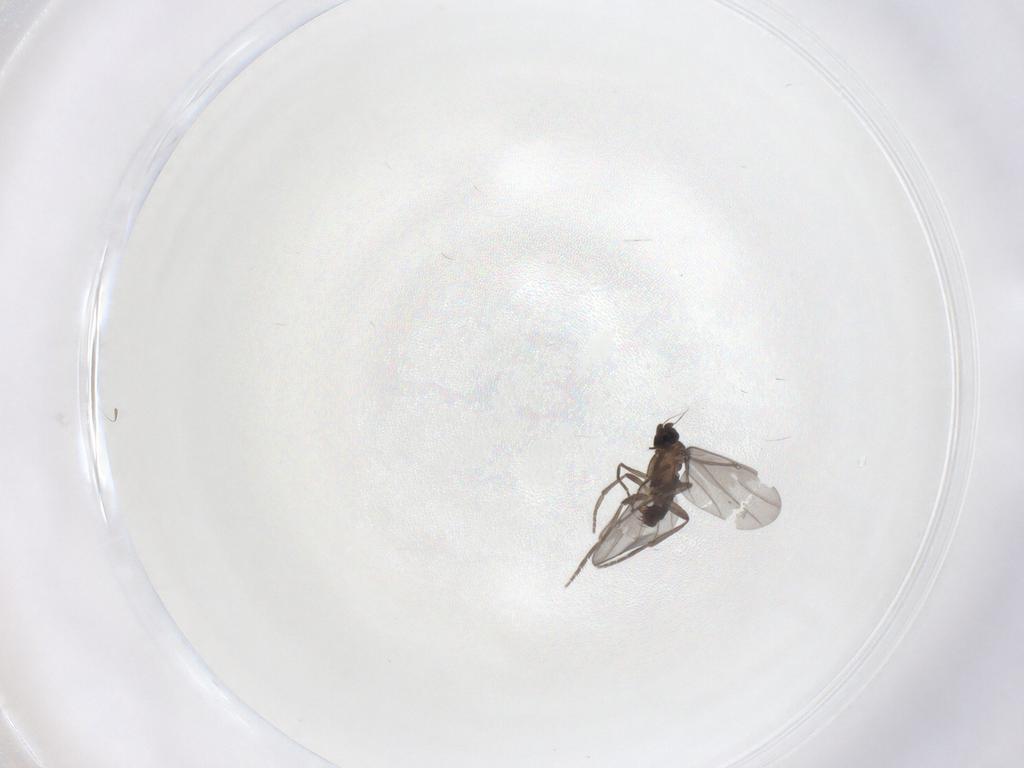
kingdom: Animalia
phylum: Arthropoda
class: Insecta
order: Diptera
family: Phoridae
